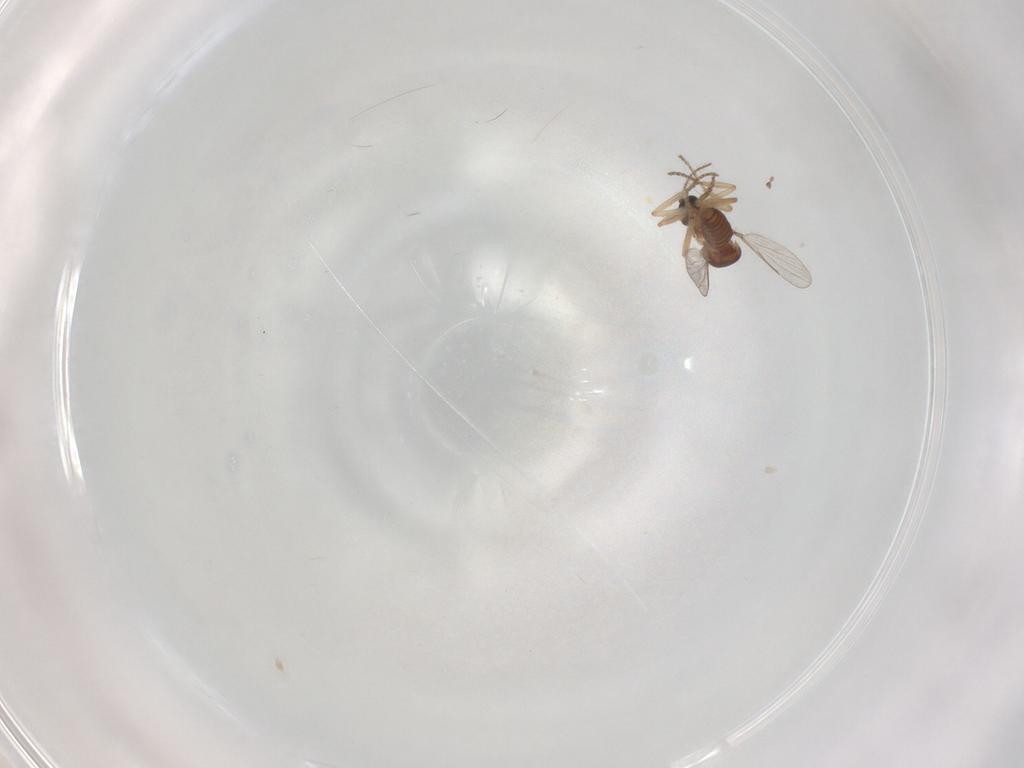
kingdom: Animalia
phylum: Arthropoda
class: Insecta
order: Diptera
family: Ceratopogonidae
